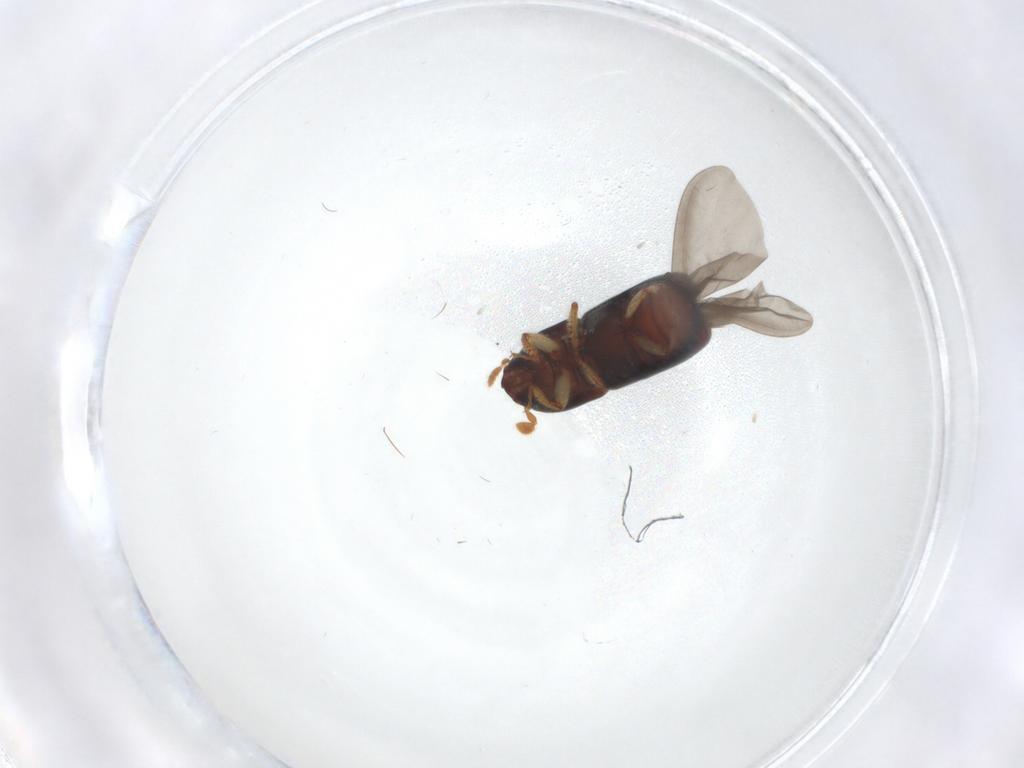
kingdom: Animalia
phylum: Arthropoda
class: Insecta
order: Coleoptera
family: Curculionidae
